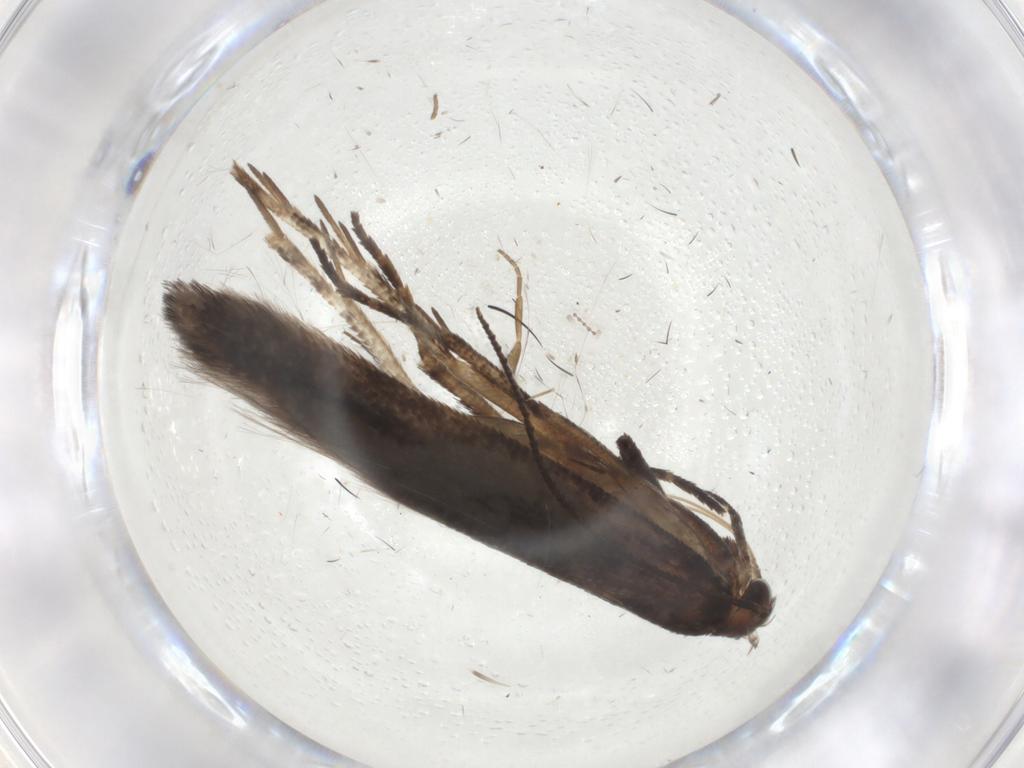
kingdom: Animalia
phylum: Arthropoda
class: Insecta
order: Lepidoptera
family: Gelechiidae
